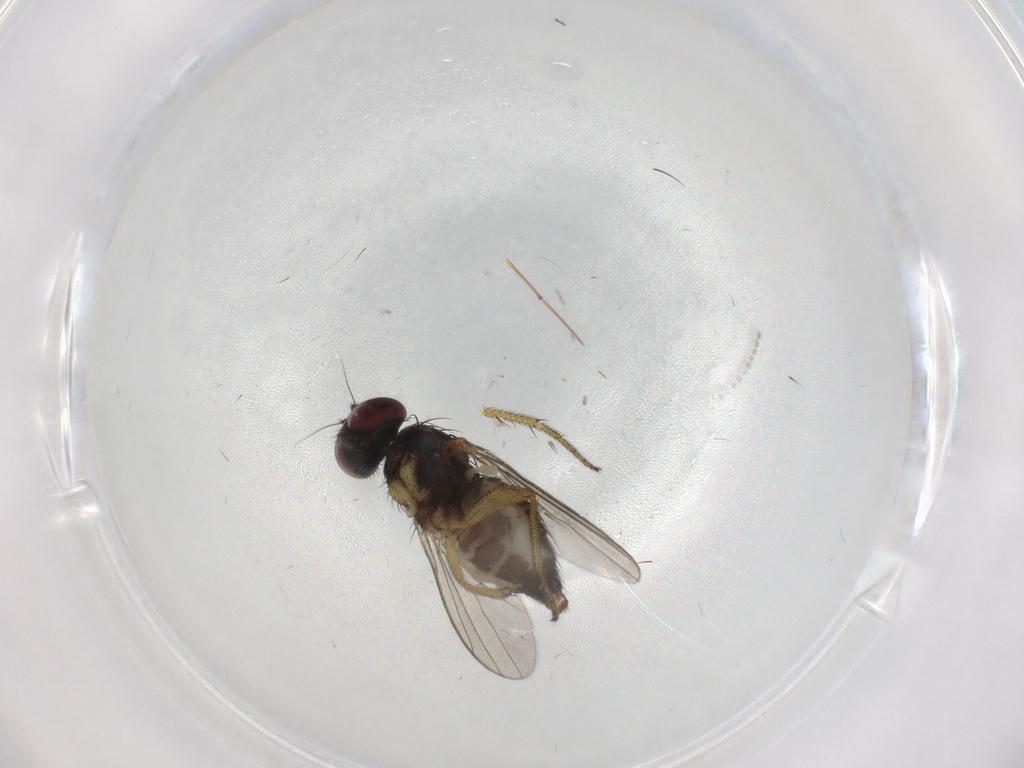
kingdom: Animalia
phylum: Arthropoda
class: Insecta
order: Diptera
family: Chironomidae
